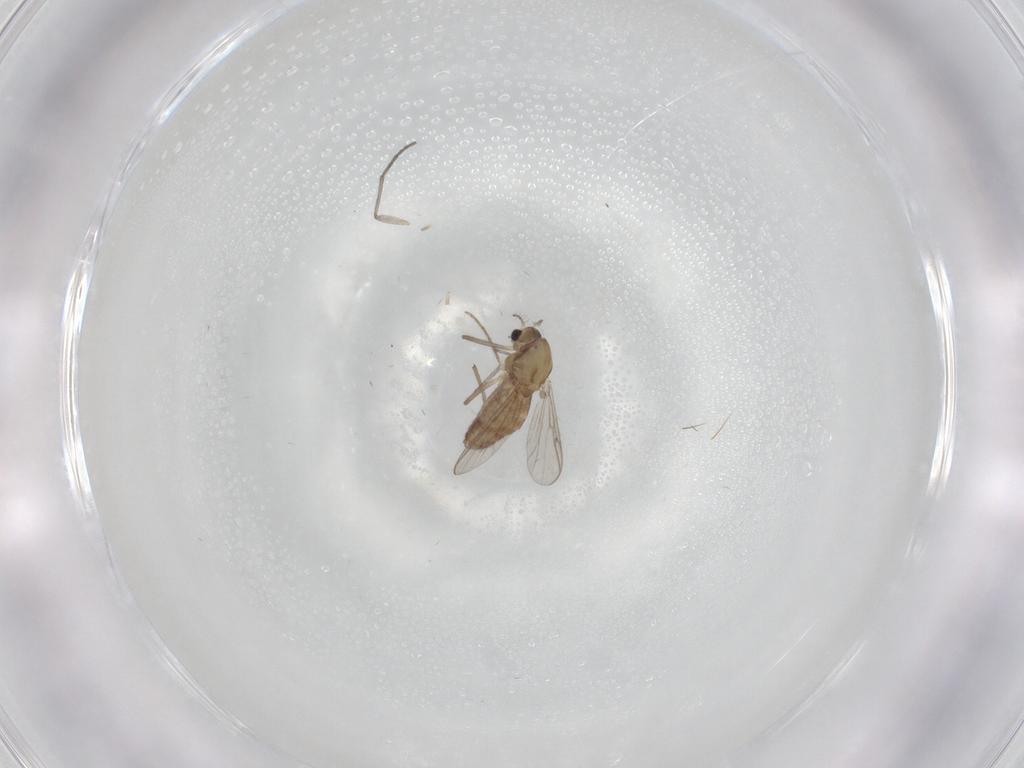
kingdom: Animalia
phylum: Arthropoda
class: Insecta
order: Diptera
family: Chironomidae
